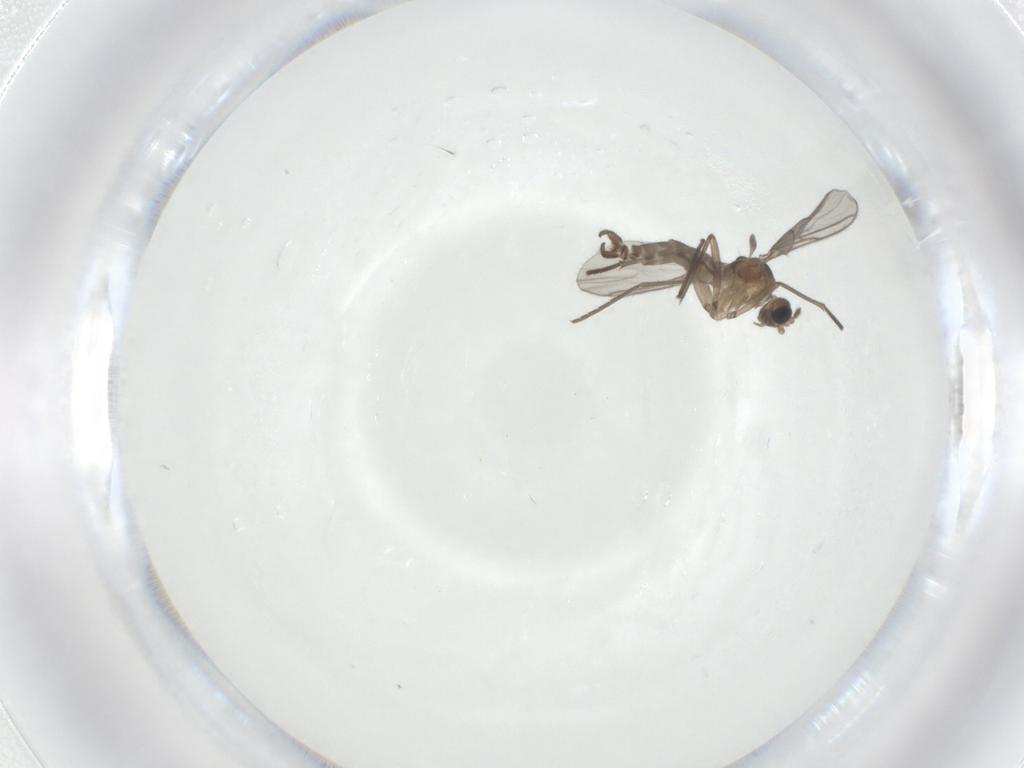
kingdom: Animalia
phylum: Arthropoda
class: Insecta
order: Diptera
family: Sciaridae
